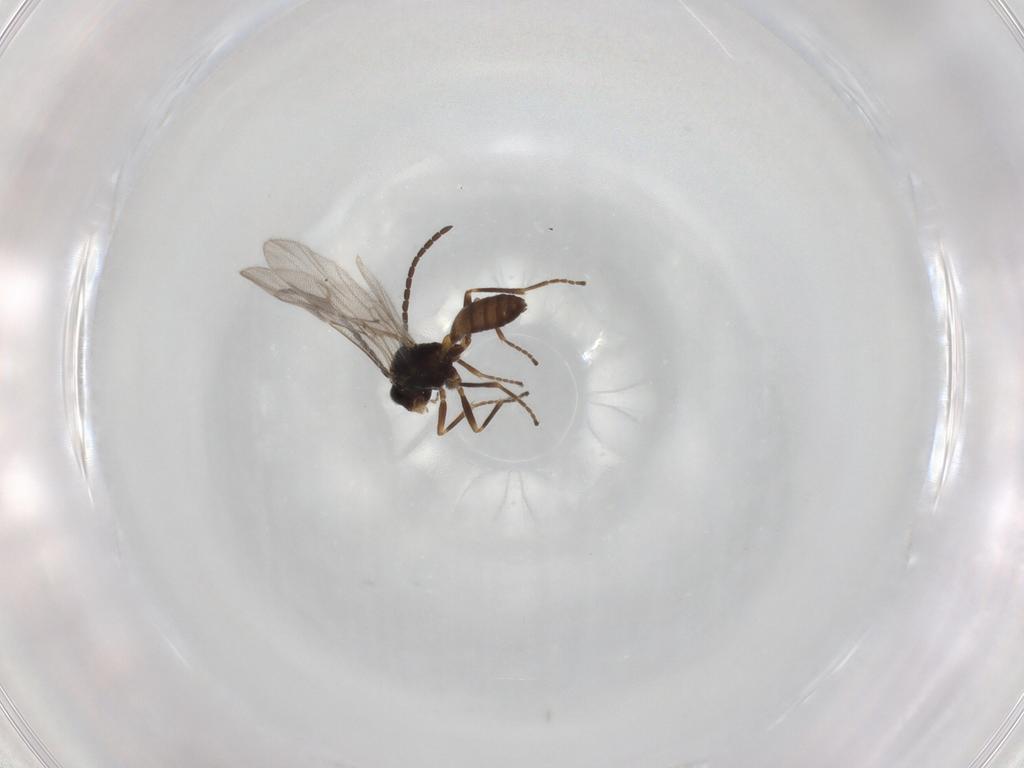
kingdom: Animalia
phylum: Arthropoda
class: Insecta
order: Hymenoptera
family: Braconidae
